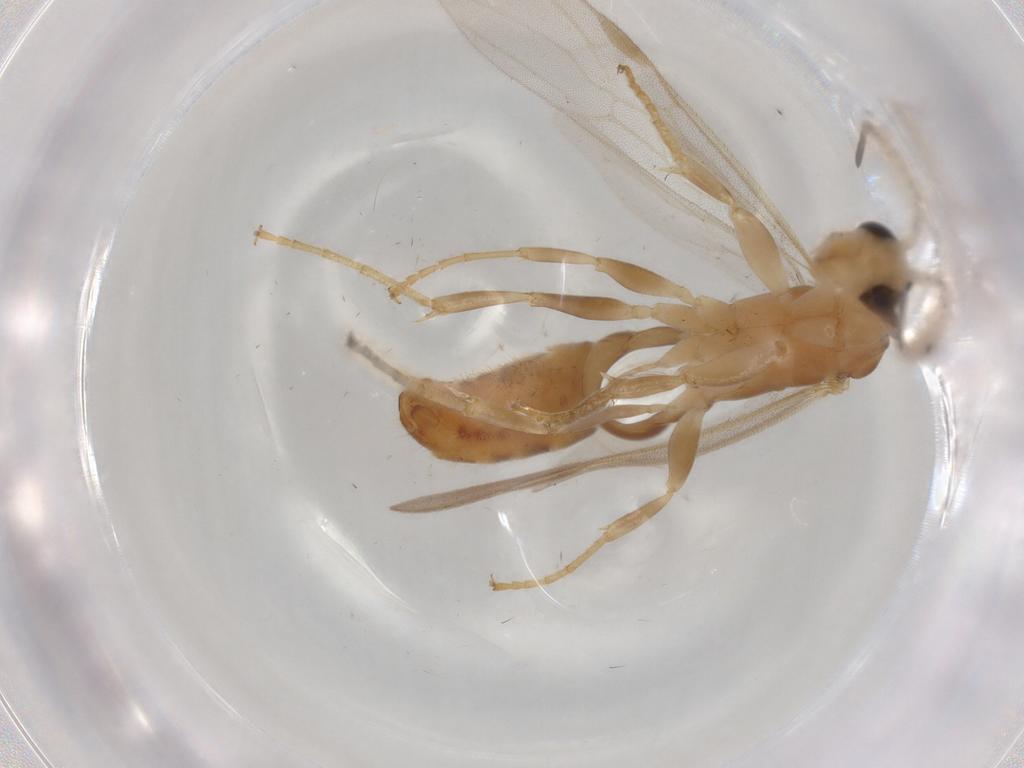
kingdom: Animalia
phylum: Arthropoda
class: Insecta
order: Hymenoptera
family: Formicidae
